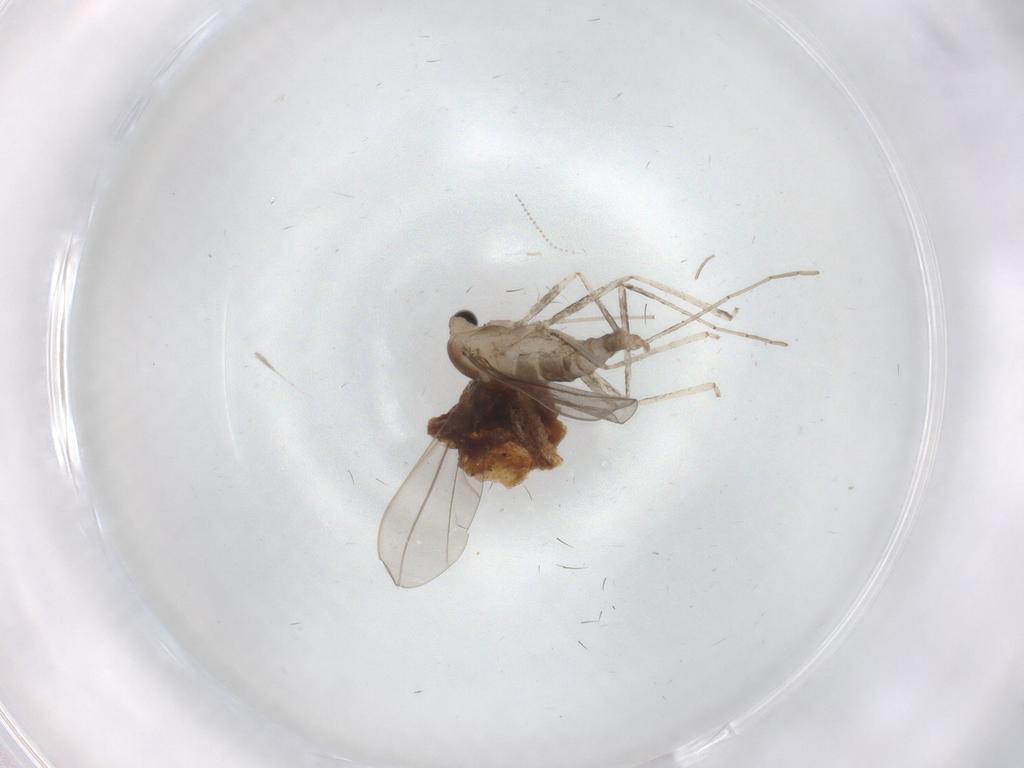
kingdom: Animalia
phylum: Arthropoda
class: Insecta
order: Diptera
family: Cecidomyiidae
